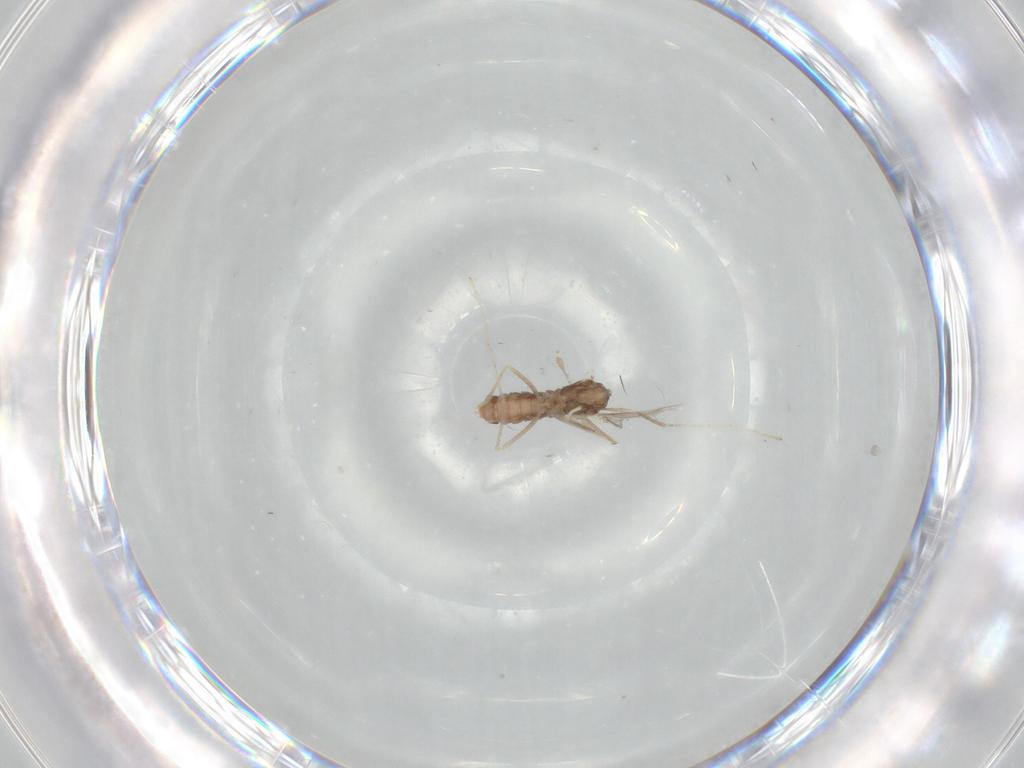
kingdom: Animalia
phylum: Arthropoda
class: Insecta
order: Diptera
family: Cecidomyiidae
